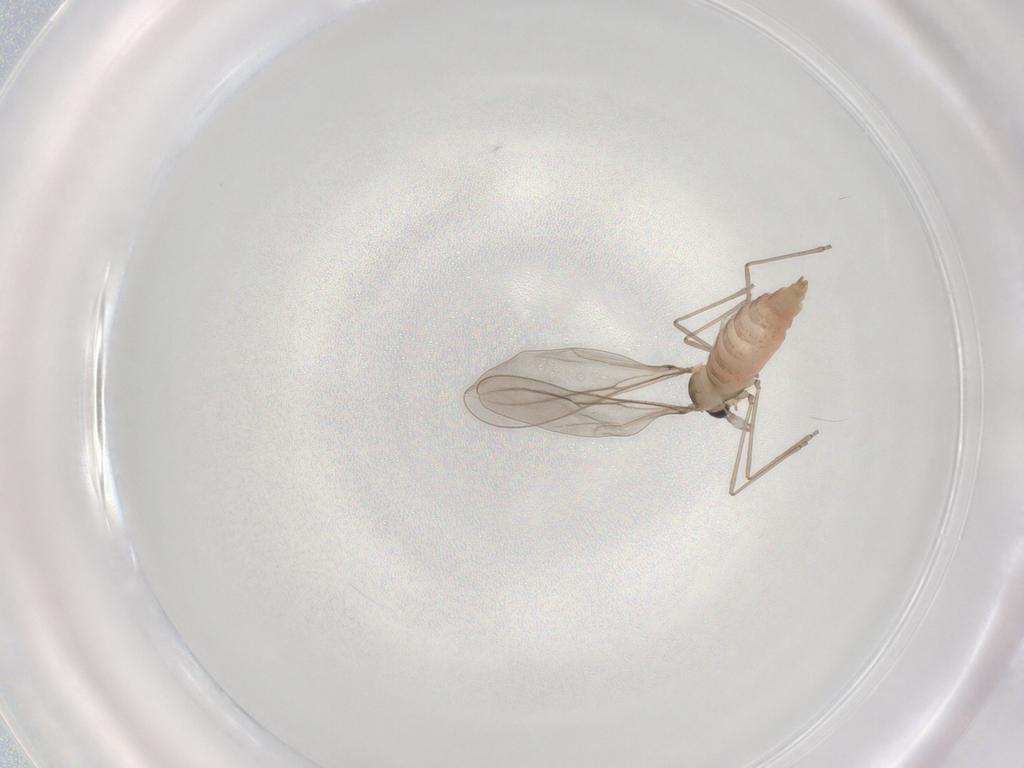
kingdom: Animalia
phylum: Arthropoda
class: Insecta
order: Diptera
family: Cecidomyiidae
